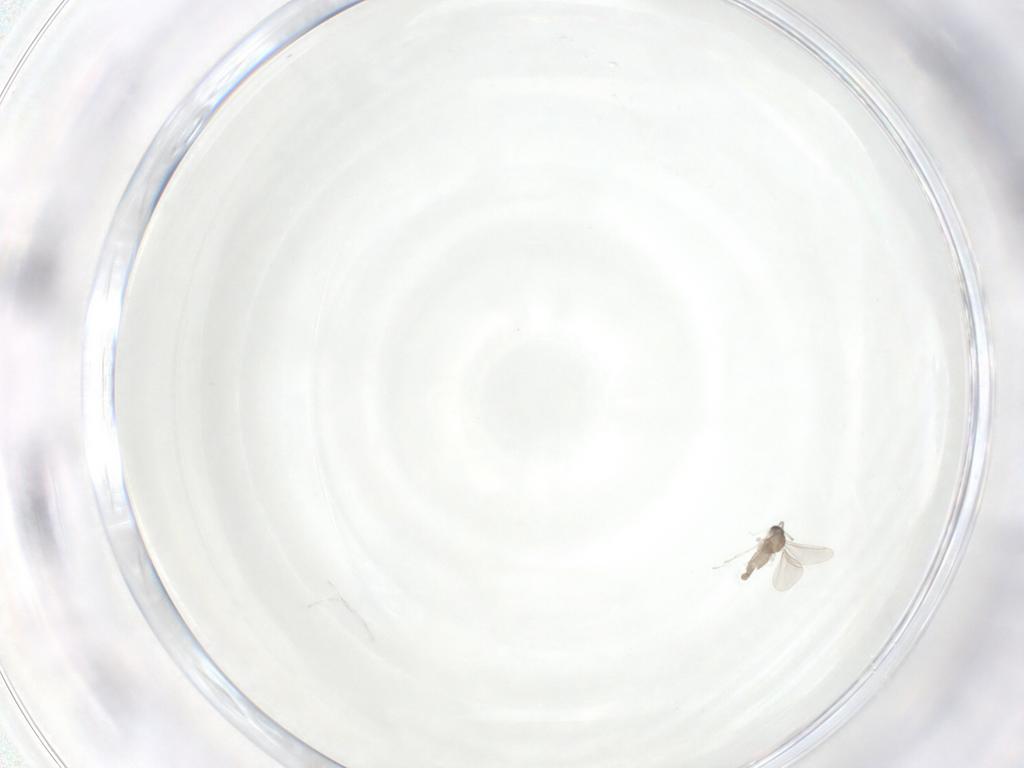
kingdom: Animalia
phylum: Arthropoda
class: Insecta
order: Diptera
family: Cecidomyiidae
